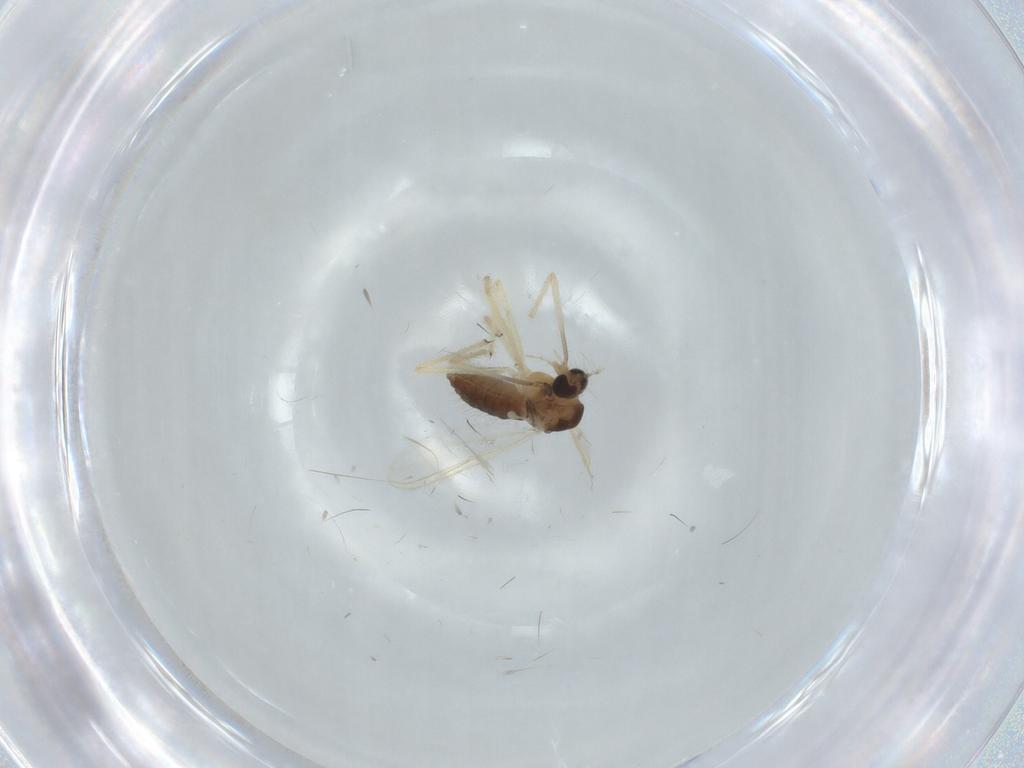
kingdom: Animalia
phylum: Arthropoda
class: Insecta
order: Diptera
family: Chironomidae
